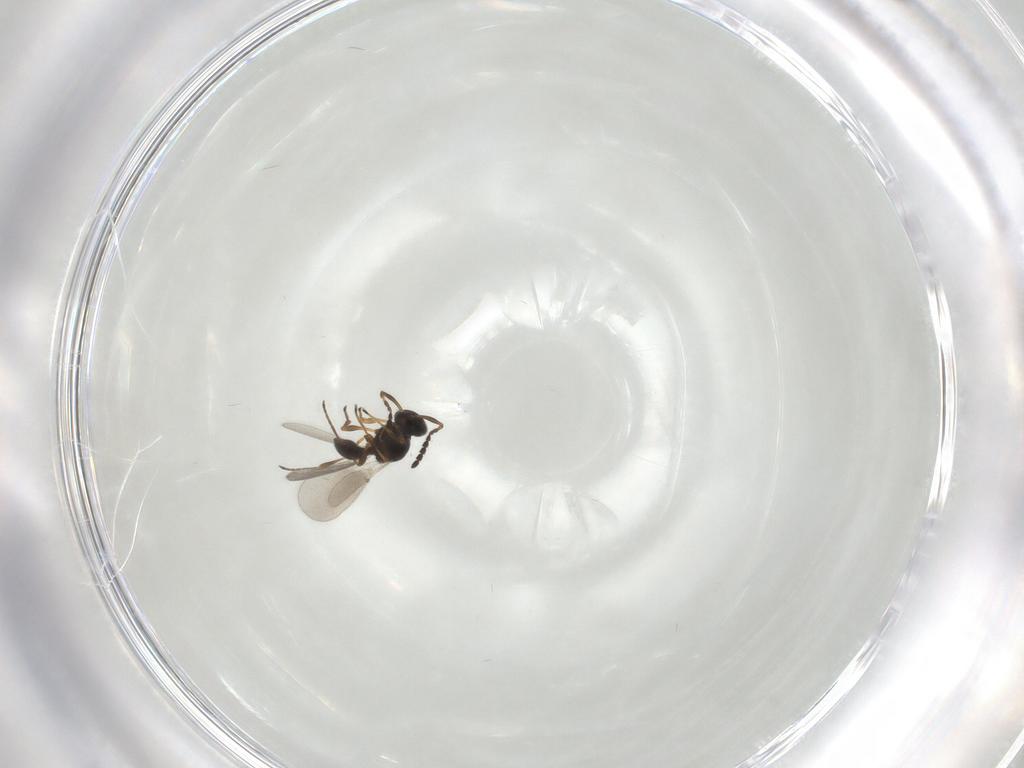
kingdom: Animalia
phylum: Arthropoda
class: Insecta
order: Hymenoptera
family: Platygastridae
